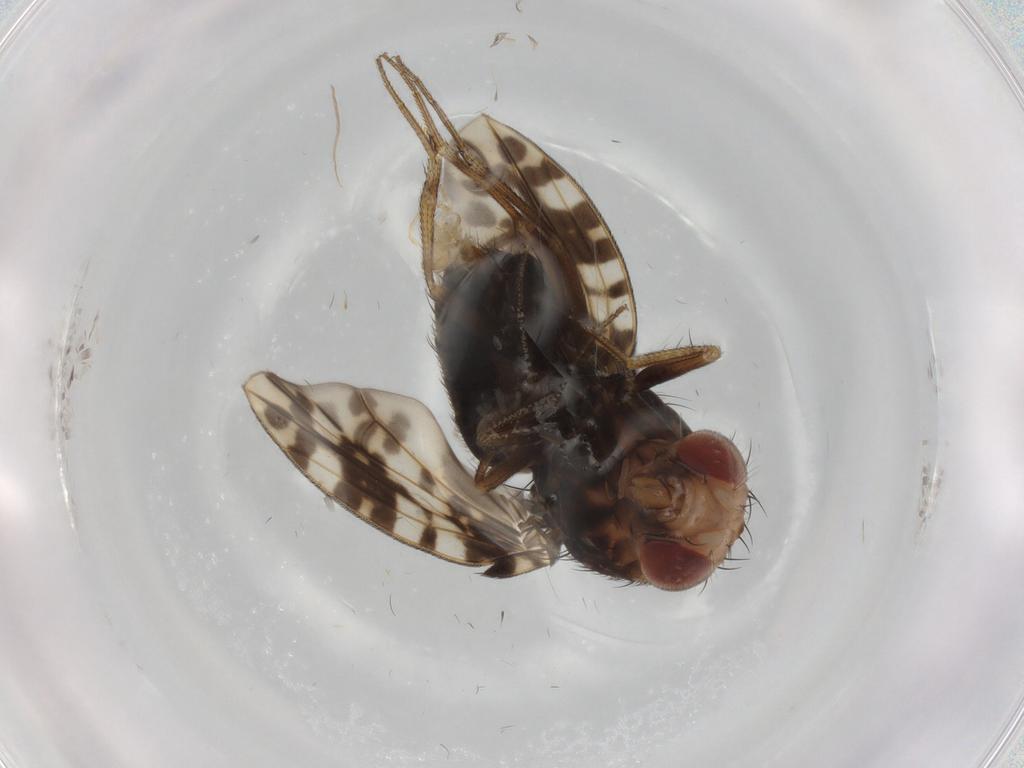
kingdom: Animalia
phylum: Arthropoda
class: Insecta
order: Diptera
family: Drosophilidae
